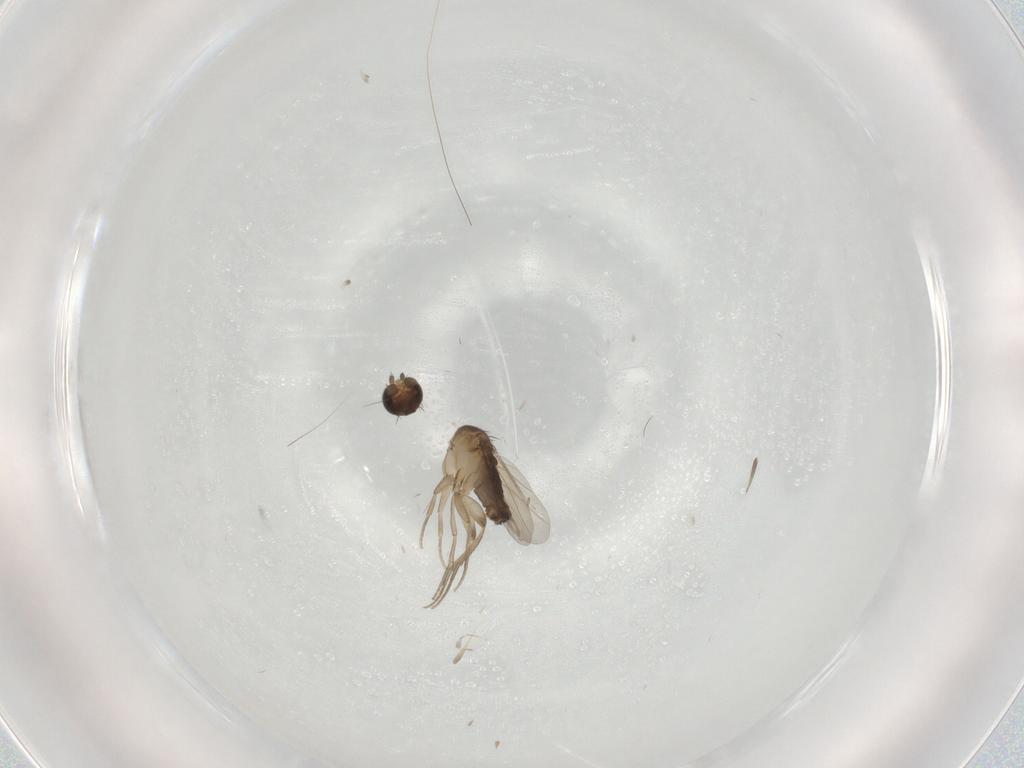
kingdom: Animalia
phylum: Arthropoda
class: Insecta
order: Diptera
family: Phoridae
